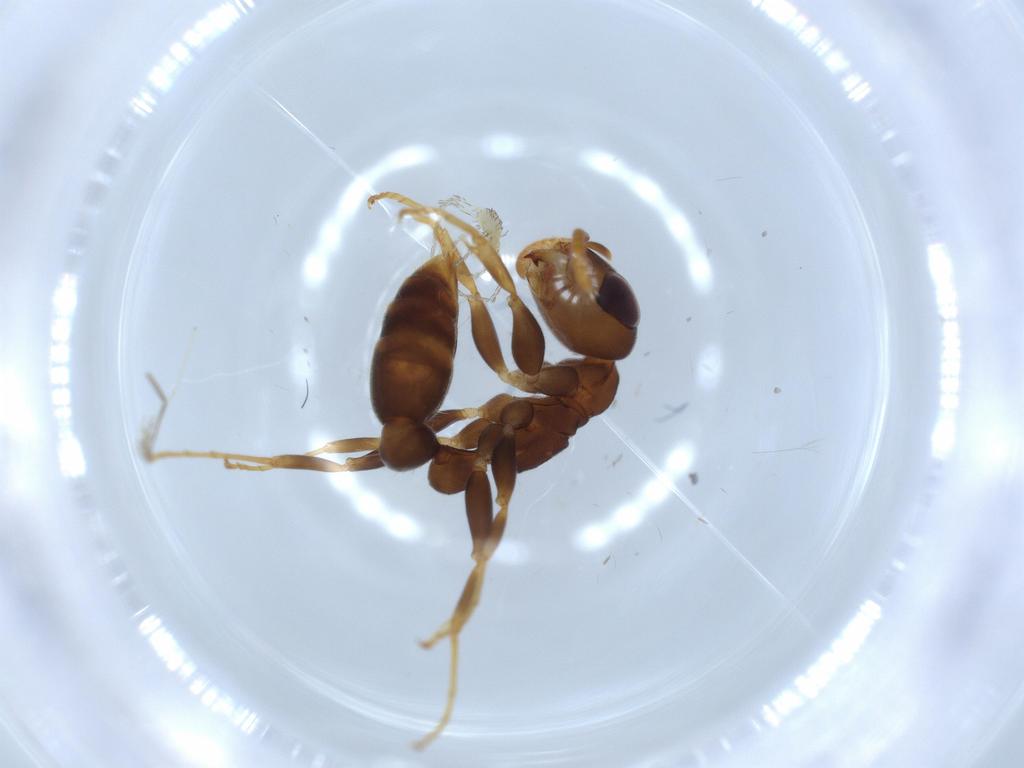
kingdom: Animalia
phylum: Arthropoda
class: Insecta
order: Hymenoptera
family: Formicidae
